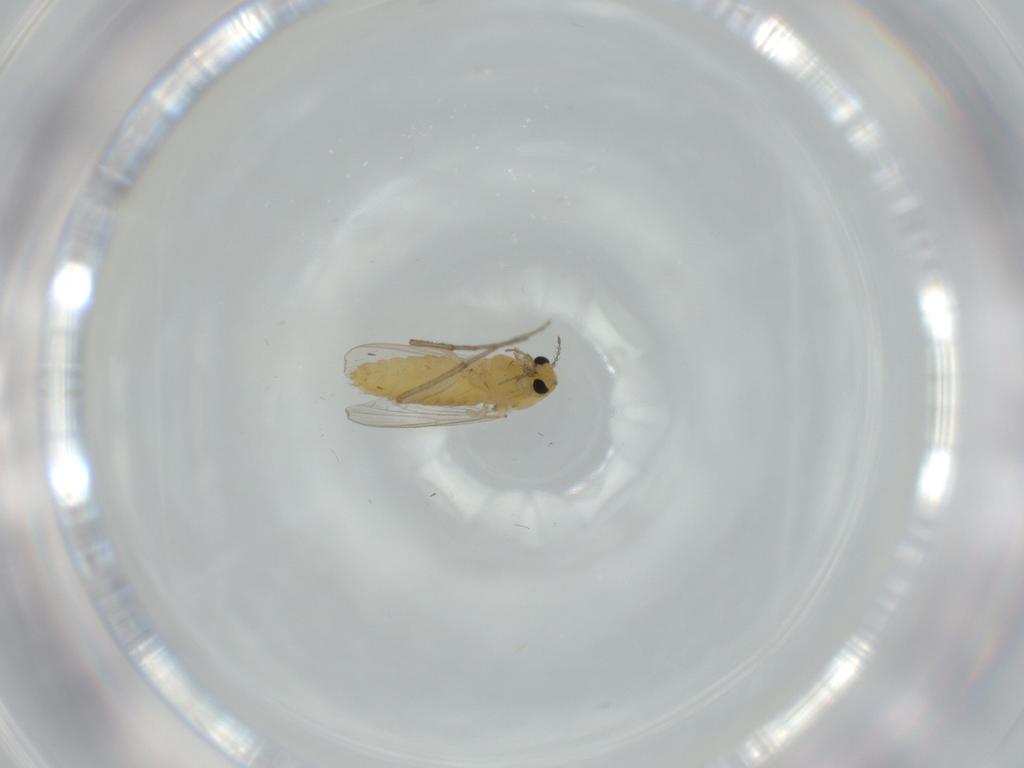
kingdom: Animalia
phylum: Arthropoda
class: Insecta
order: Diptera
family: Chironomidae
